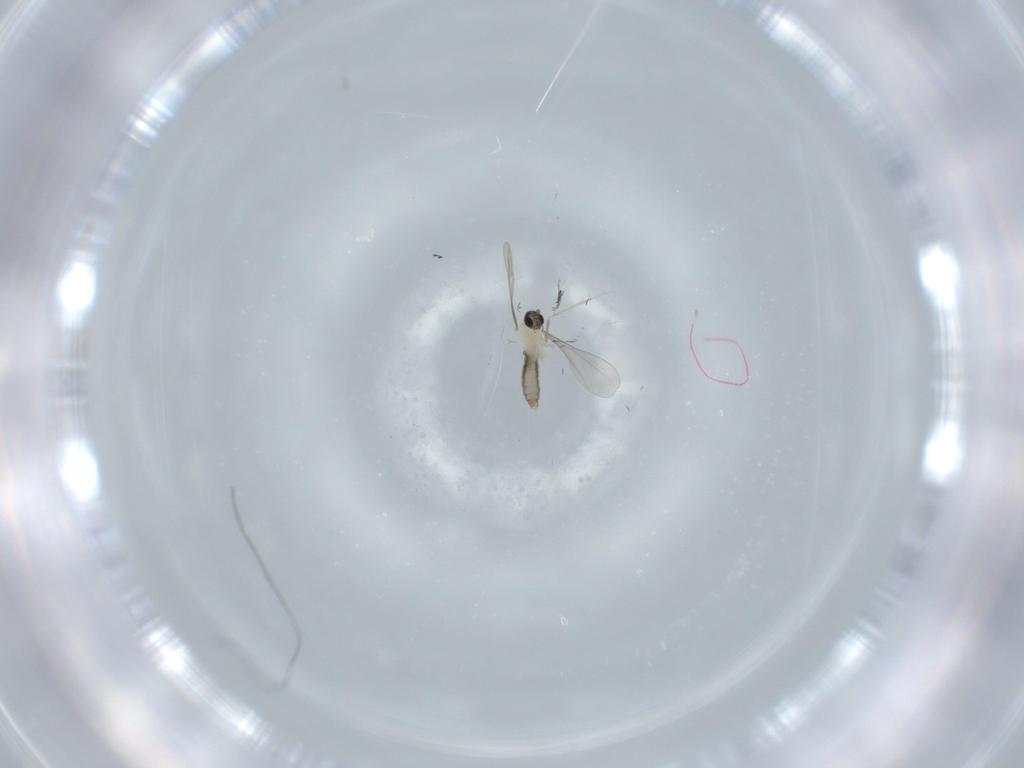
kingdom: Animalia
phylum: Arthropoda
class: Insecta
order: Diptera
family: Cecidomyiidae
